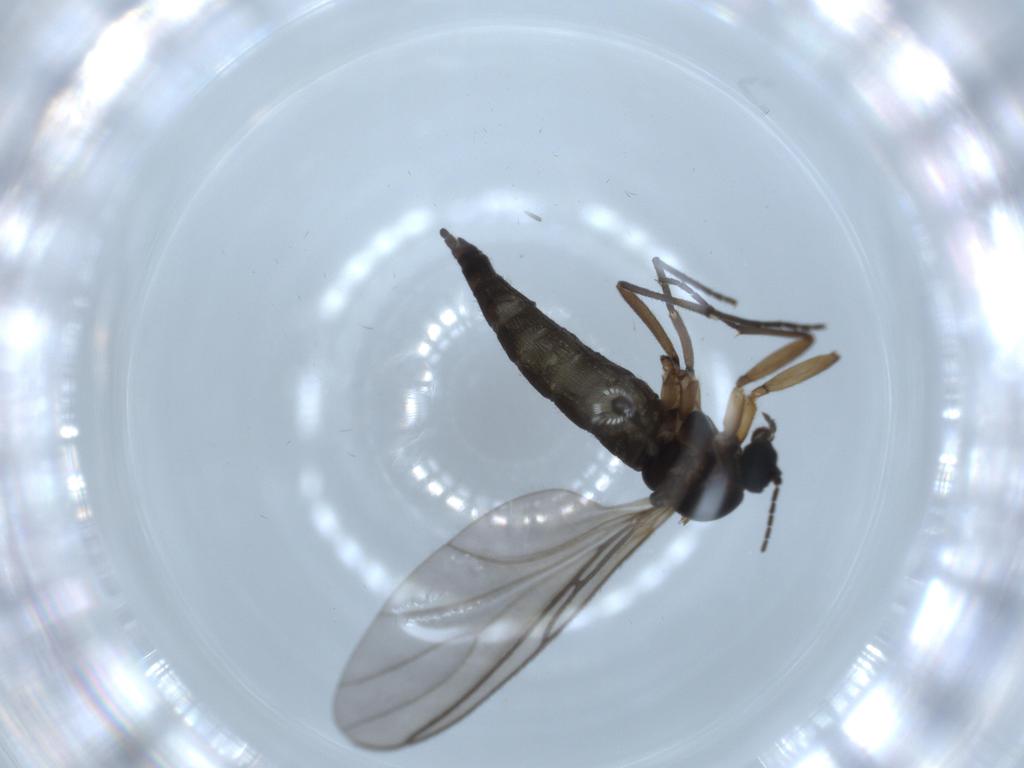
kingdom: Animalia
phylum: Arthropoda
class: Insecta
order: Diptera
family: Sciaridae
